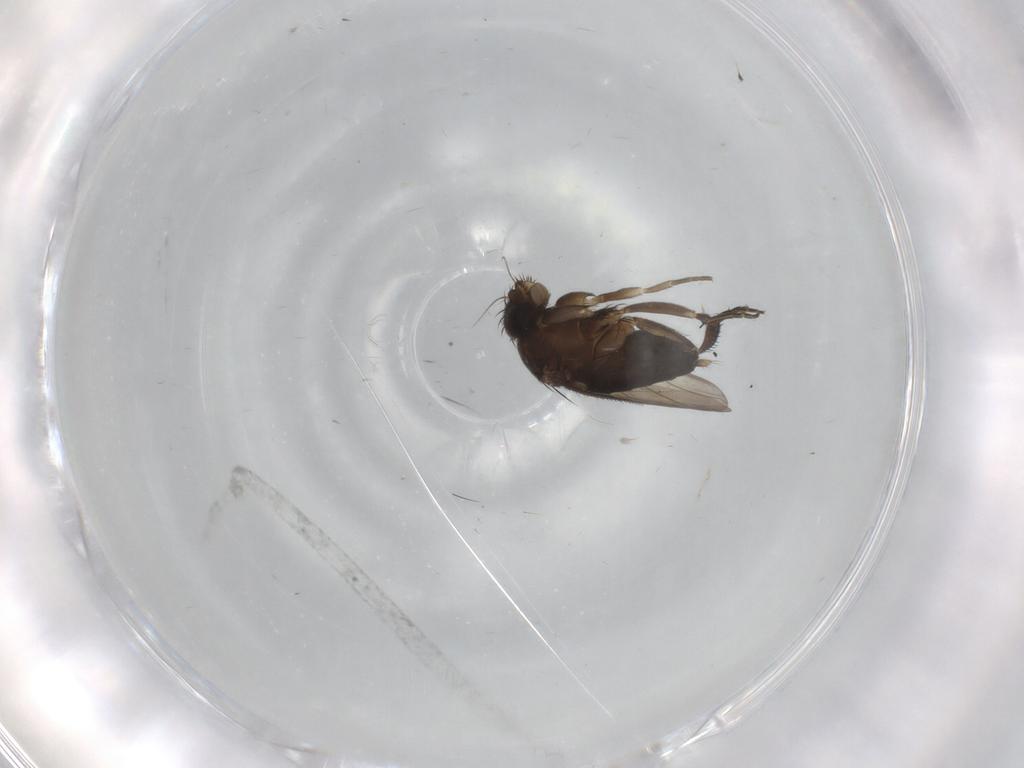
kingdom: Animalia
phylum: Arthropoda
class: Insecta
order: Diptera
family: Phoridae
